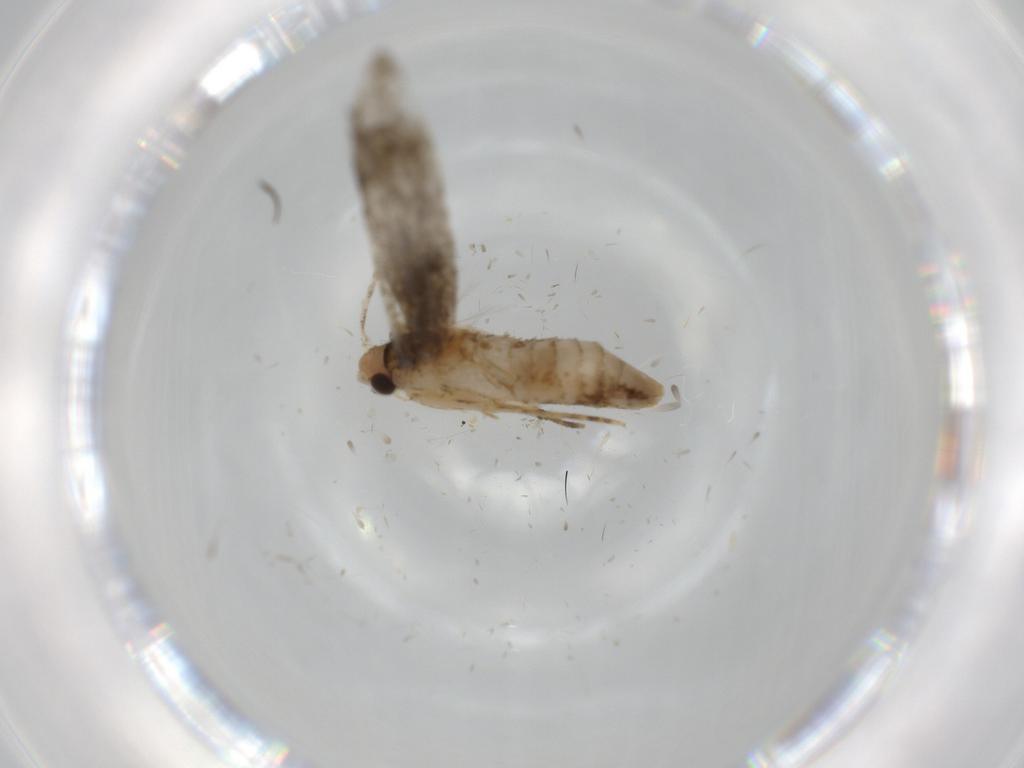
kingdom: Animalia
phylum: Arthropoda
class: Insecta
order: Lepidoptera
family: Meessiidae
